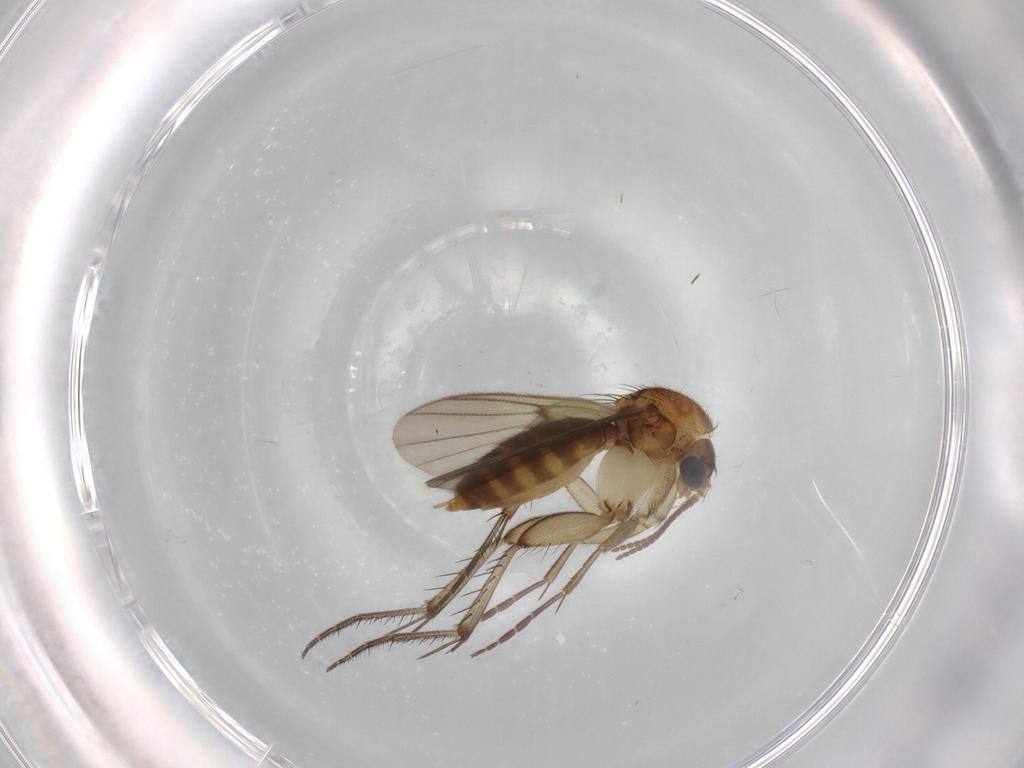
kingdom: Animalia
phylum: Arthropoda
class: Insecta
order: Diptera
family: Mycetophilidae
